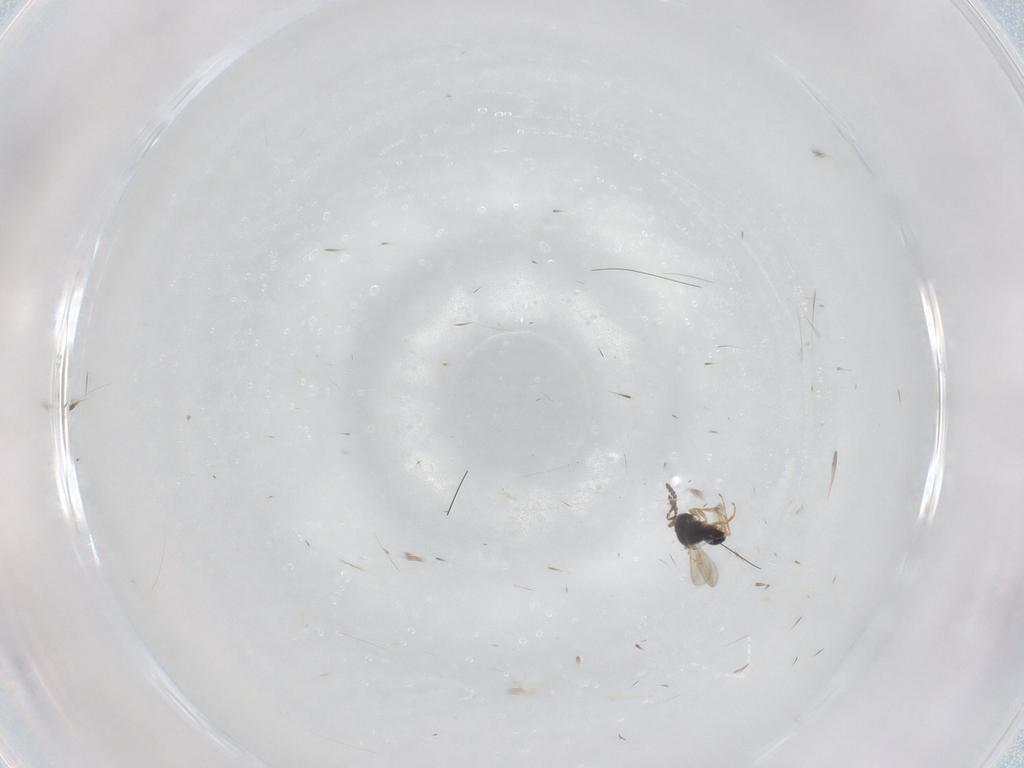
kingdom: Animalia
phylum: Arthropoda
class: Insecta
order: Hymenoptera
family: Scelionidae
